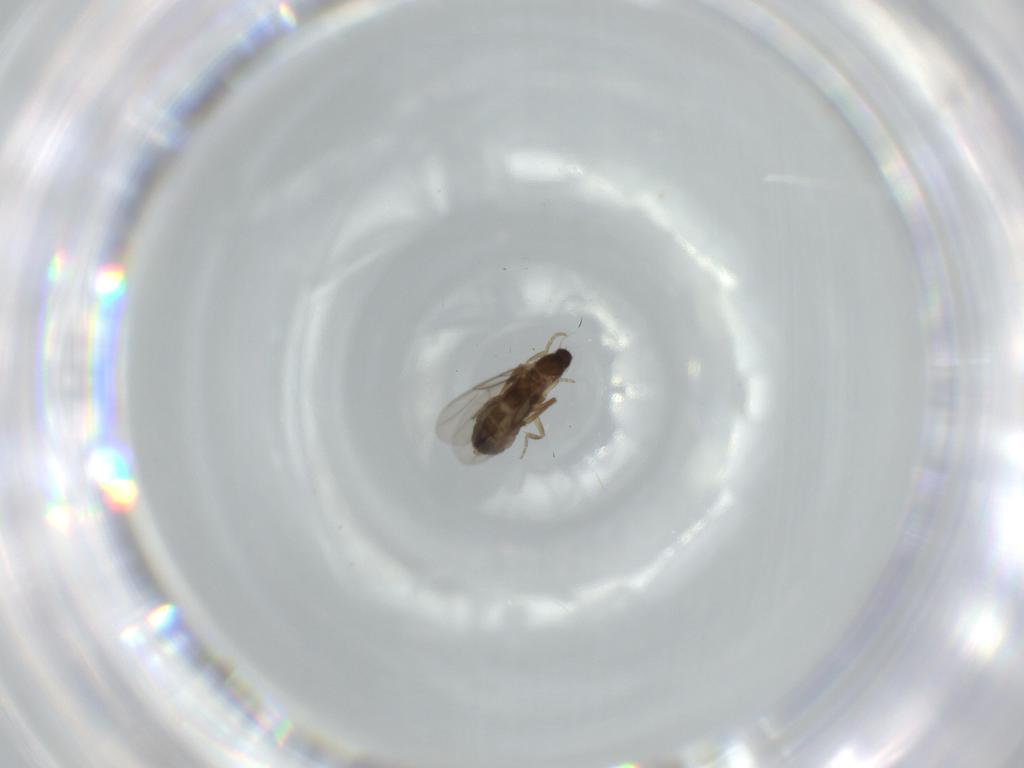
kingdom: Animalia
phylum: Arthropoda
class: Insecta
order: Diptera
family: Phoridae
